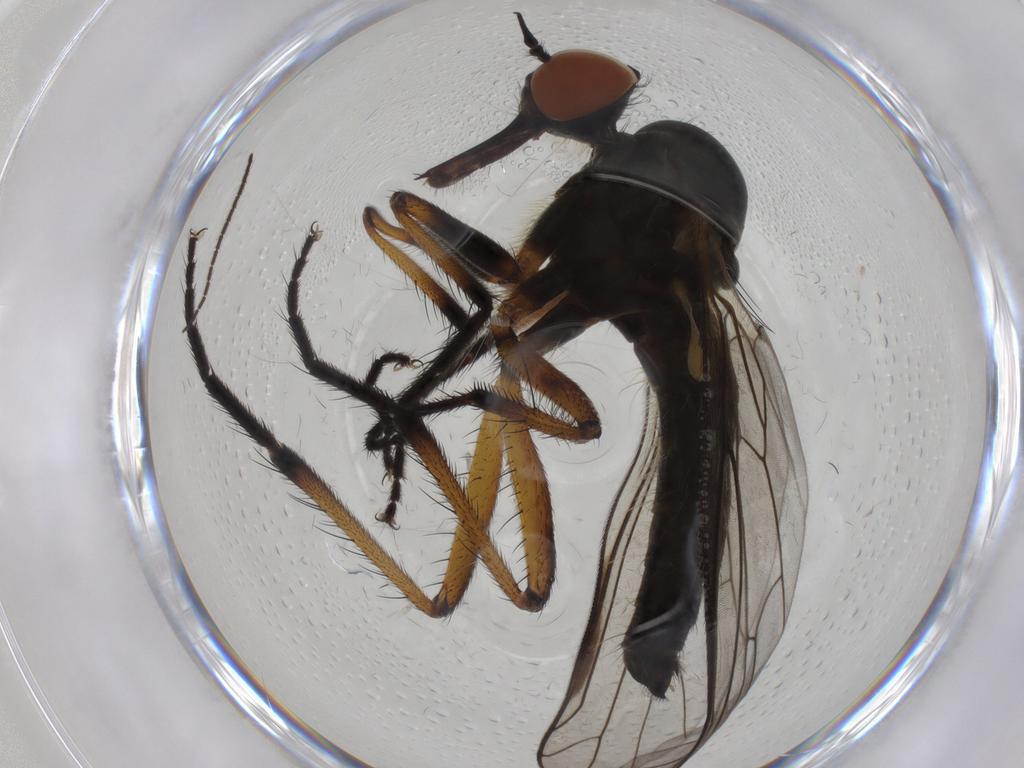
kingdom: Animalia
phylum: Arthropoda
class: Insecta
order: Diptera
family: Empididae
